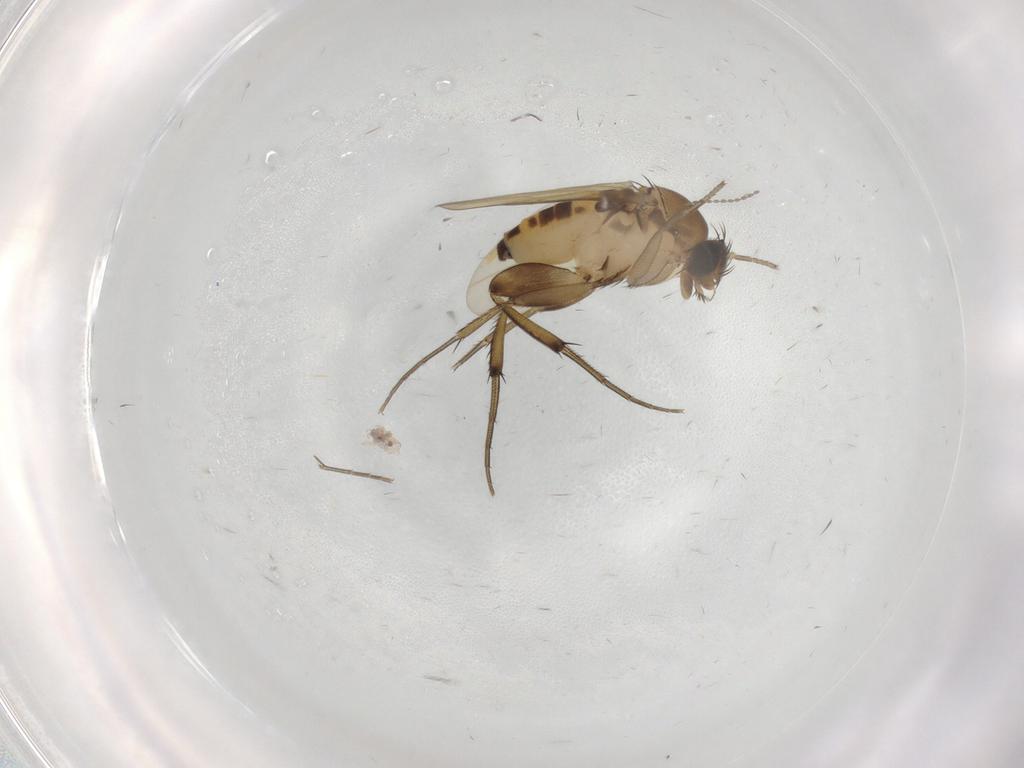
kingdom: Animalia
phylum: Arthropoda
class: Insecta
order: Diptera
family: Phoridae
